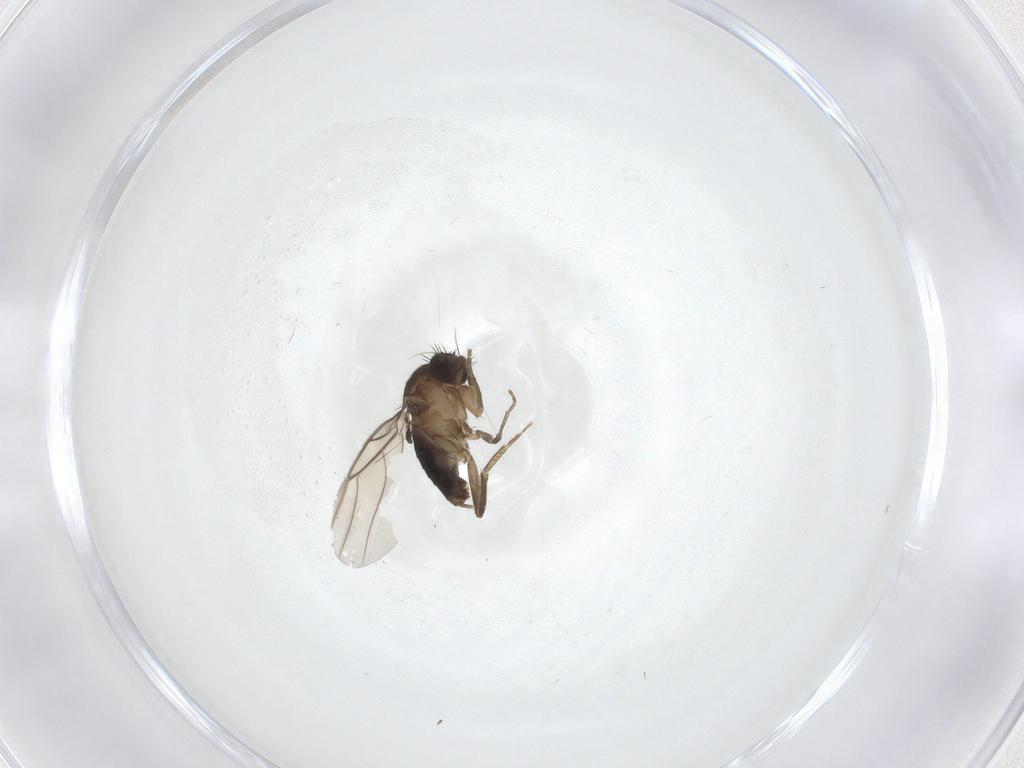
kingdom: Animalia
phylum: Arthropoda
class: Insecta
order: Diptera
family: Phoridae
